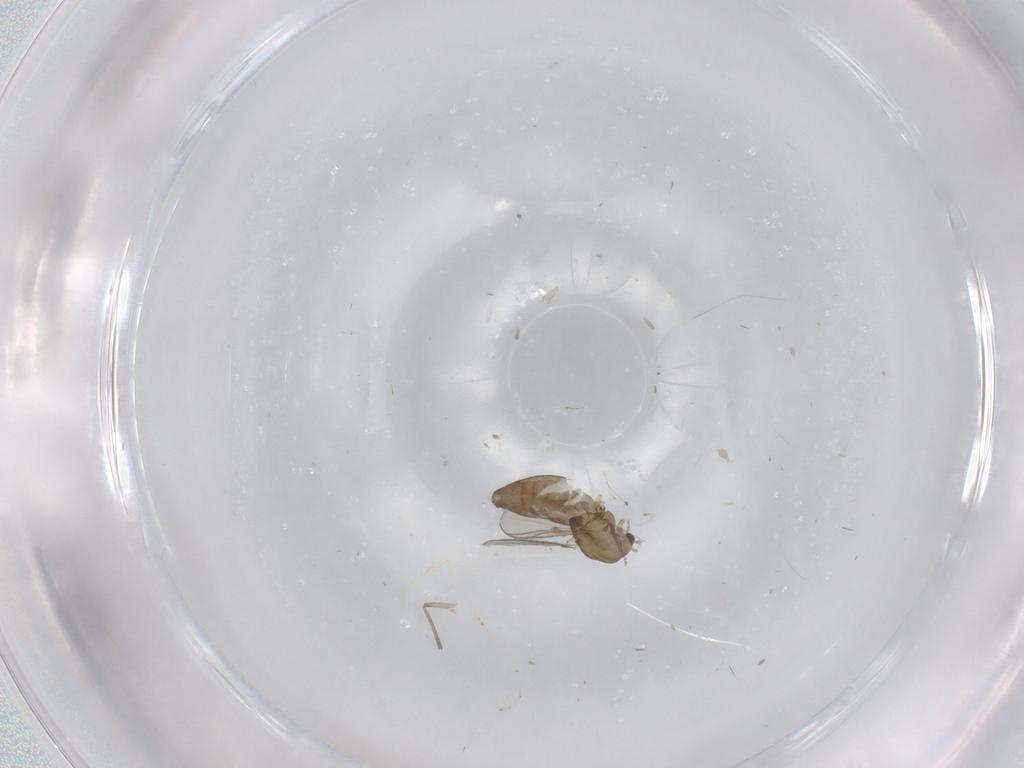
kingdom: Animalia
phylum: Arthropoda
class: Insecta
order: Diptera
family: Chironomidae
